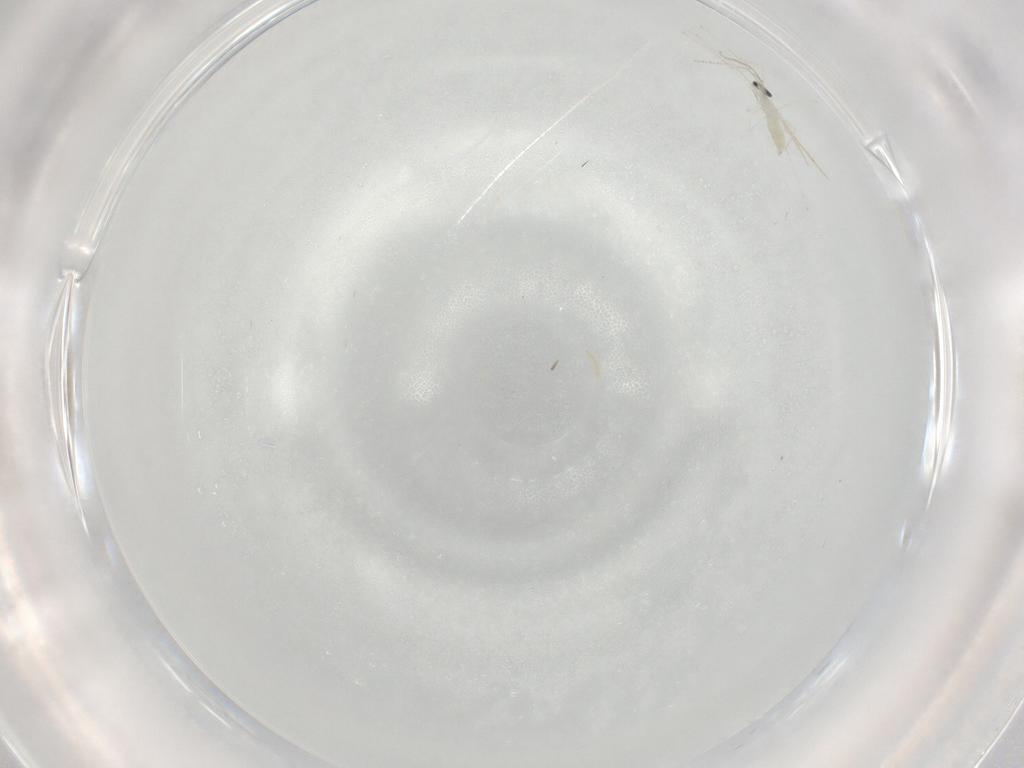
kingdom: Animalia
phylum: Arthropoda
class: Insecta
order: Diptera
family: Cecidomyiidae
